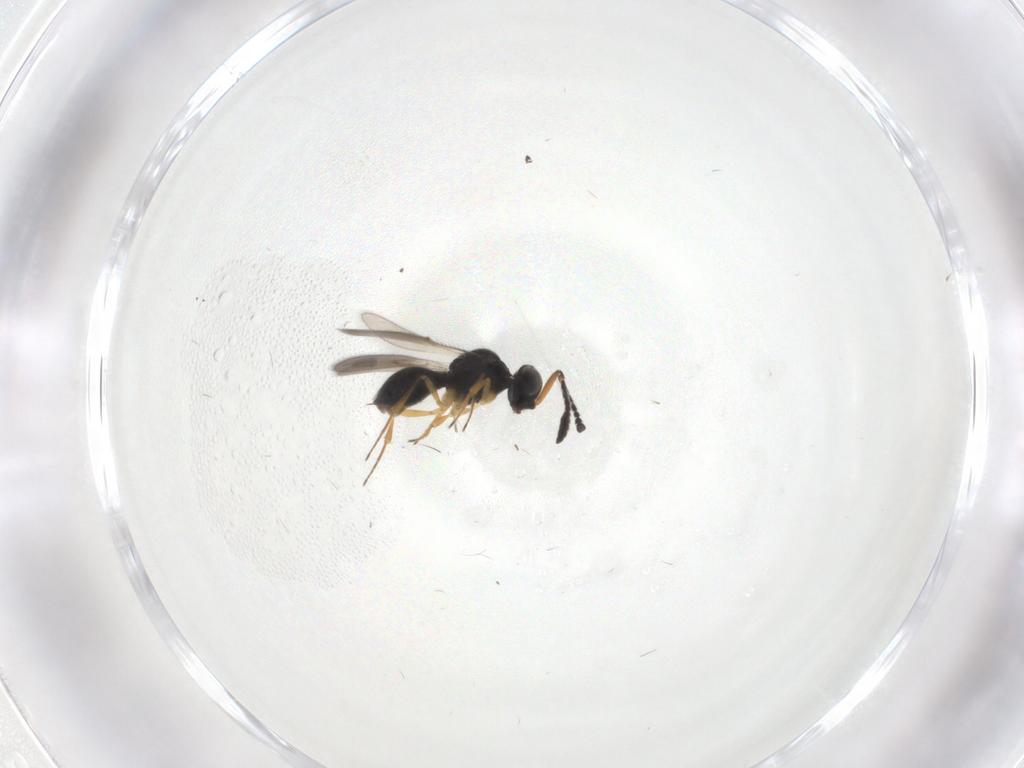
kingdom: Animalia
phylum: Arthropoda
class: Insecta
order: Hymenoptera
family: Scelionidae
